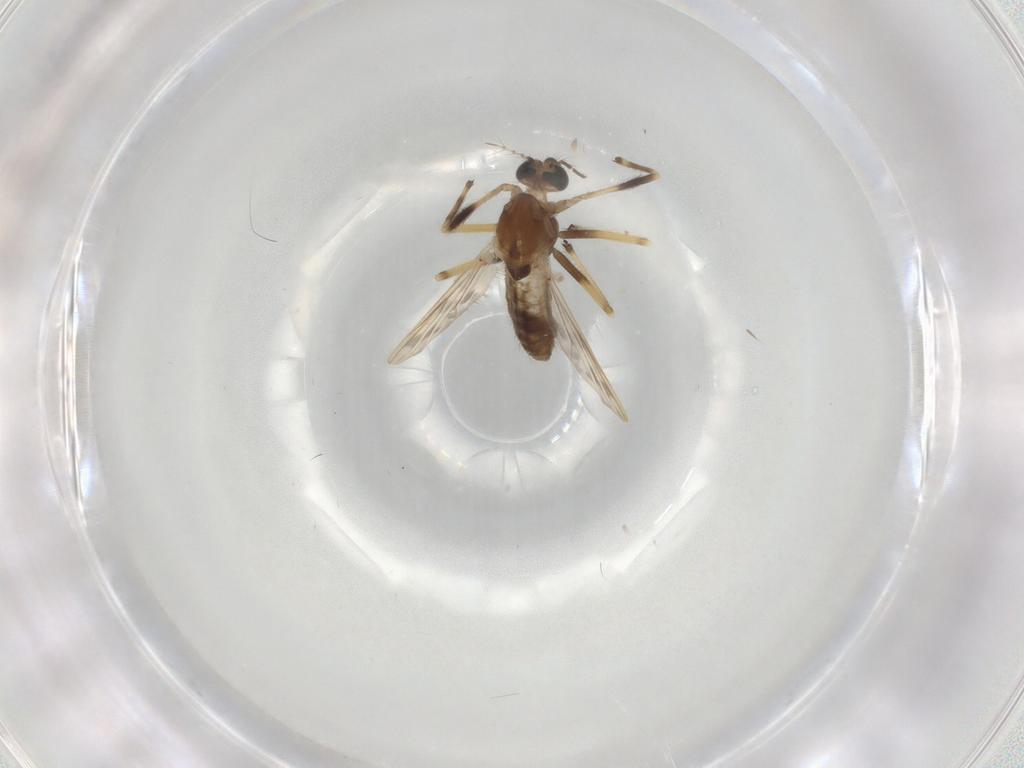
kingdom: Animalia
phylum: Arthropoda
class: Insecta
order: Diptera
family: Chironomidae
